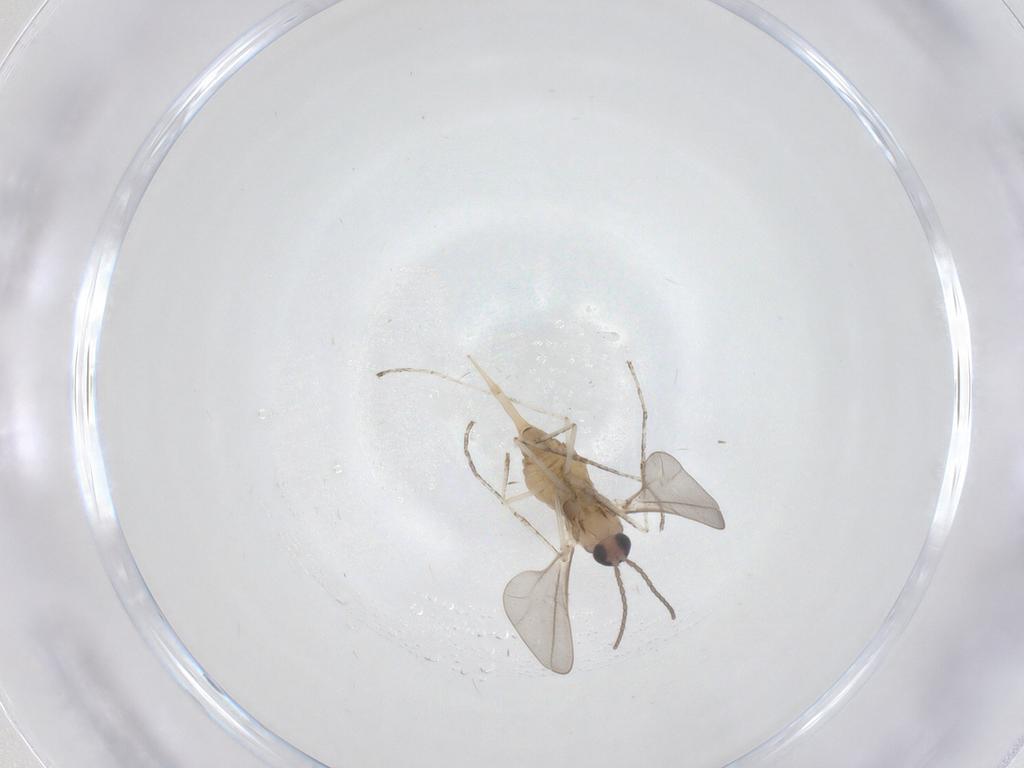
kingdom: Animalia
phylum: Arthropoda
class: Insecta
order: Diptera
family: Cecidomyiidae
